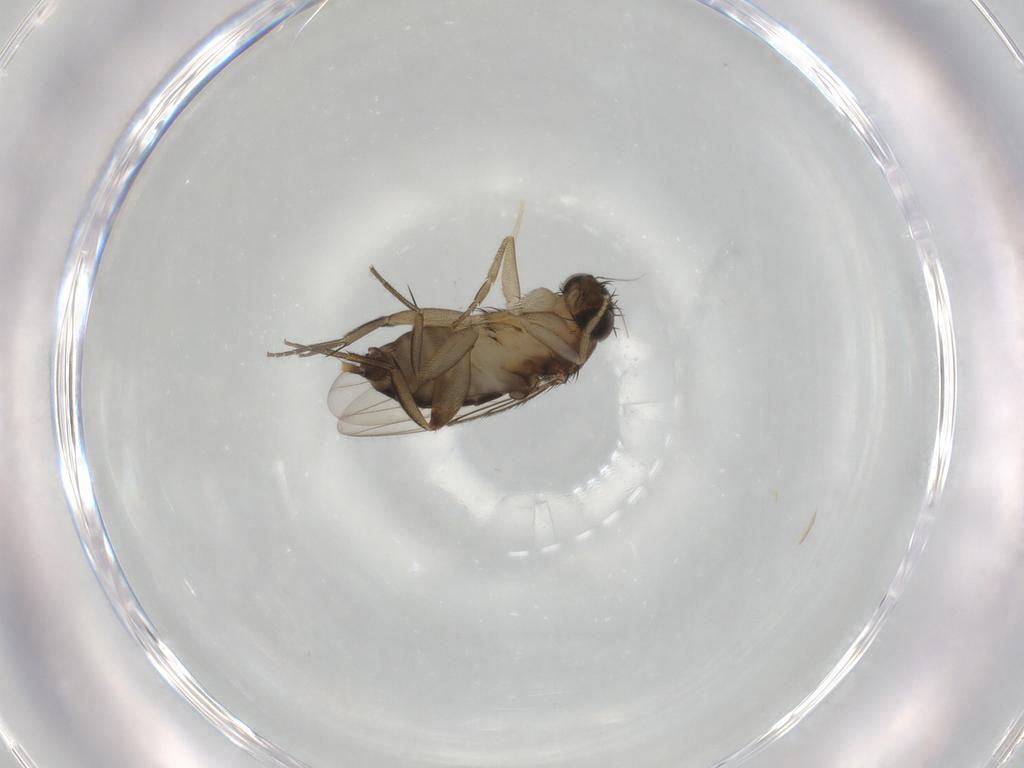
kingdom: Animalia
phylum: Arthropoda
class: Insecta
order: Diptera
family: Phoridae
